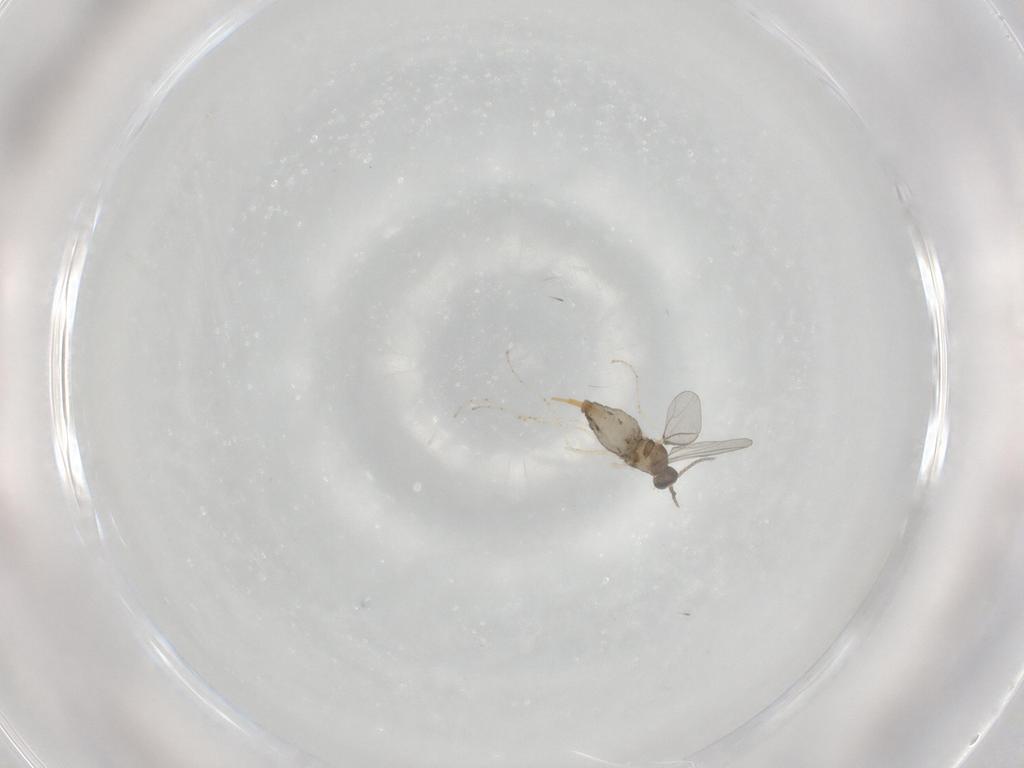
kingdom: Animalia
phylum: Arthropoda
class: Insecta
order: Diptera
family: Cecidomyiidae
